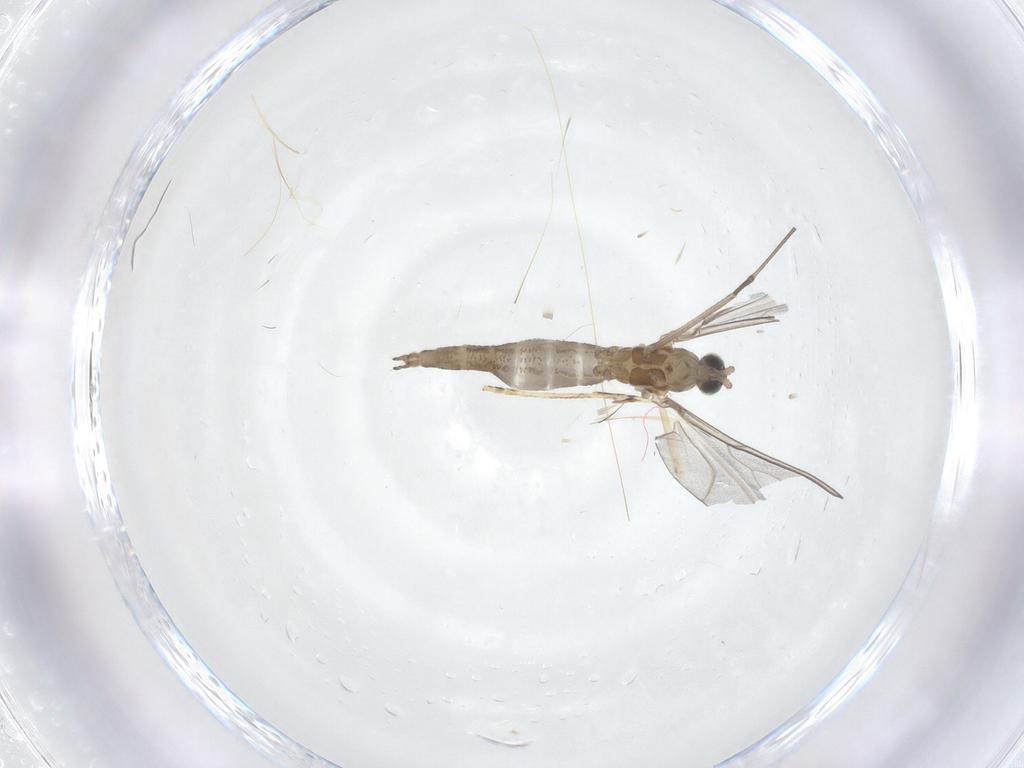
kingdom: Animalia
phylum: Arthropoda
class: Insecta
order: Diptera
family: Cecidomyiidae
